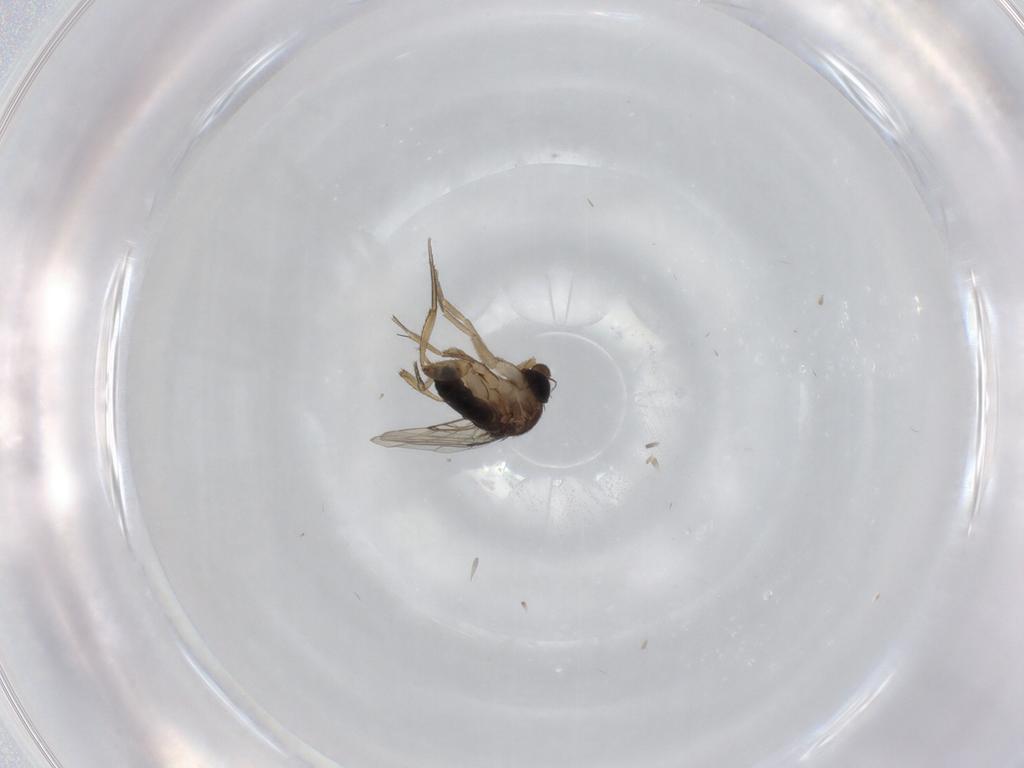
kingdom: Animalia
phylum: Arthropoda
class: Insecta
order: Diptera
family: Phoridae
